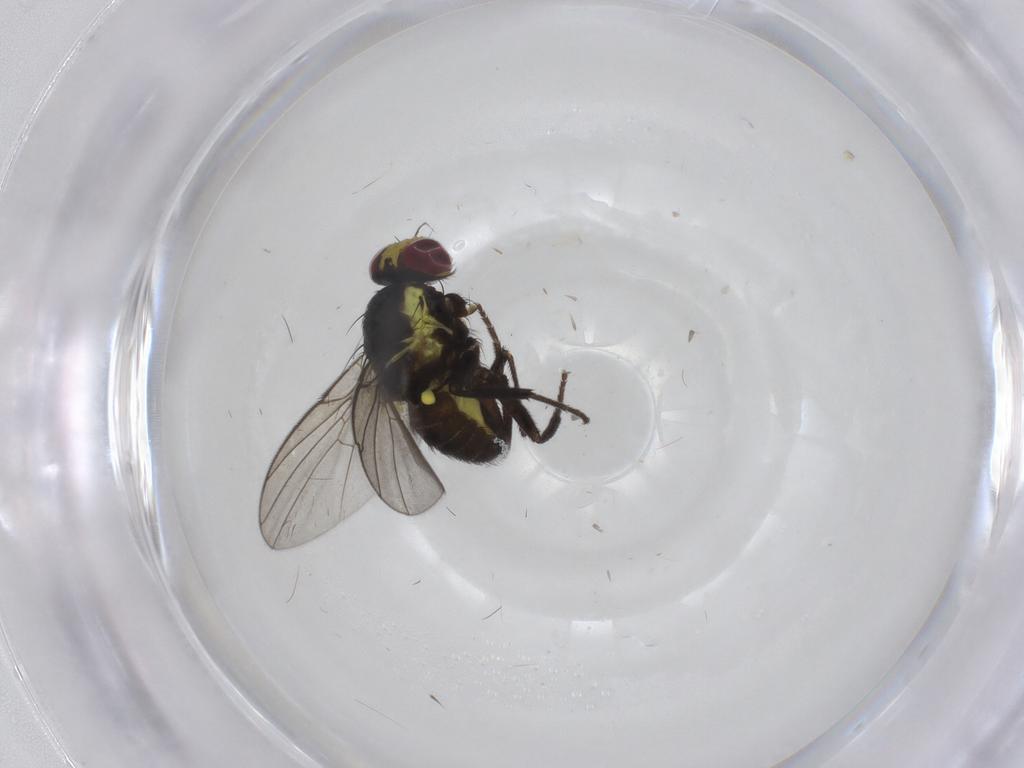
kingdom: Animalia
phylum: Arthropoda
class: Insecta
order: Diptera
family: Agromyzidae
